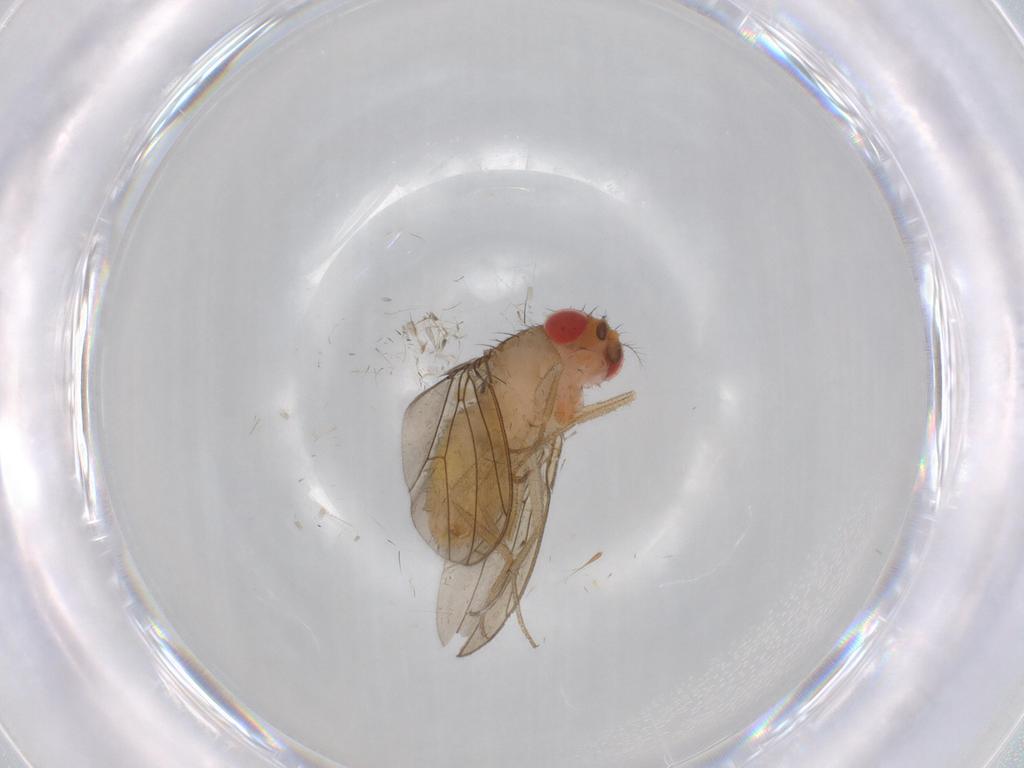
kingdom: Animalia
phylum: Arthropoda
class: Insecta
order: Diptera
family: Drosophilidae
